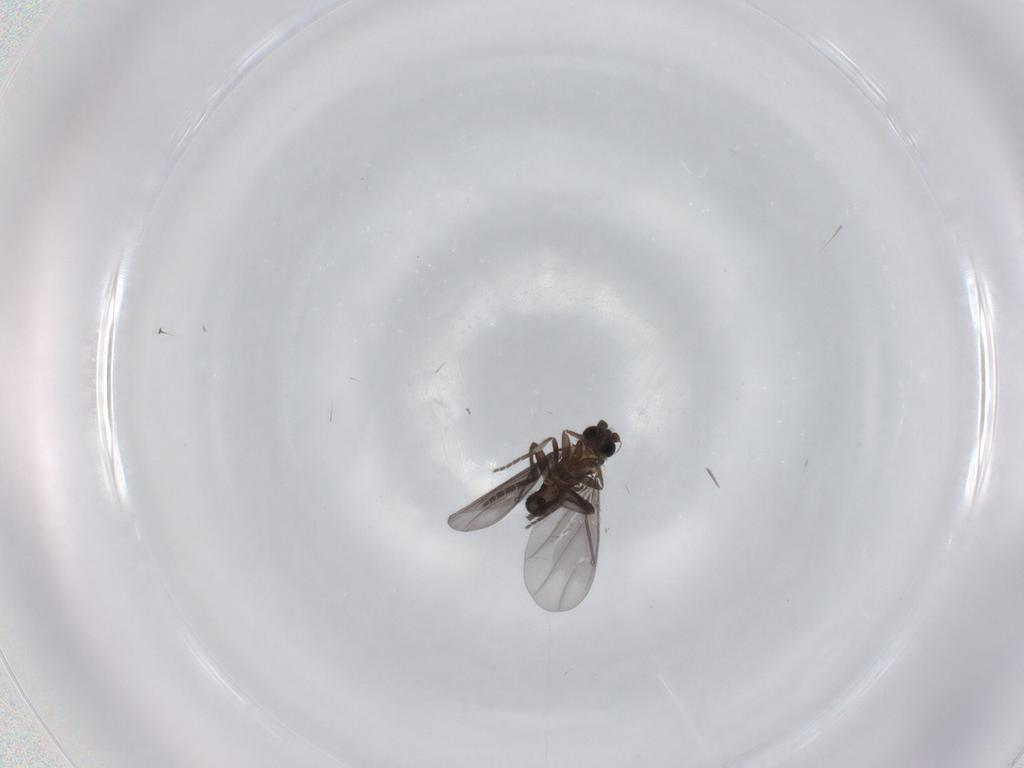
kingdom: Animalia
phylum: Arthropoda
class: Insecta
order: Diptera
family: Phoridae
